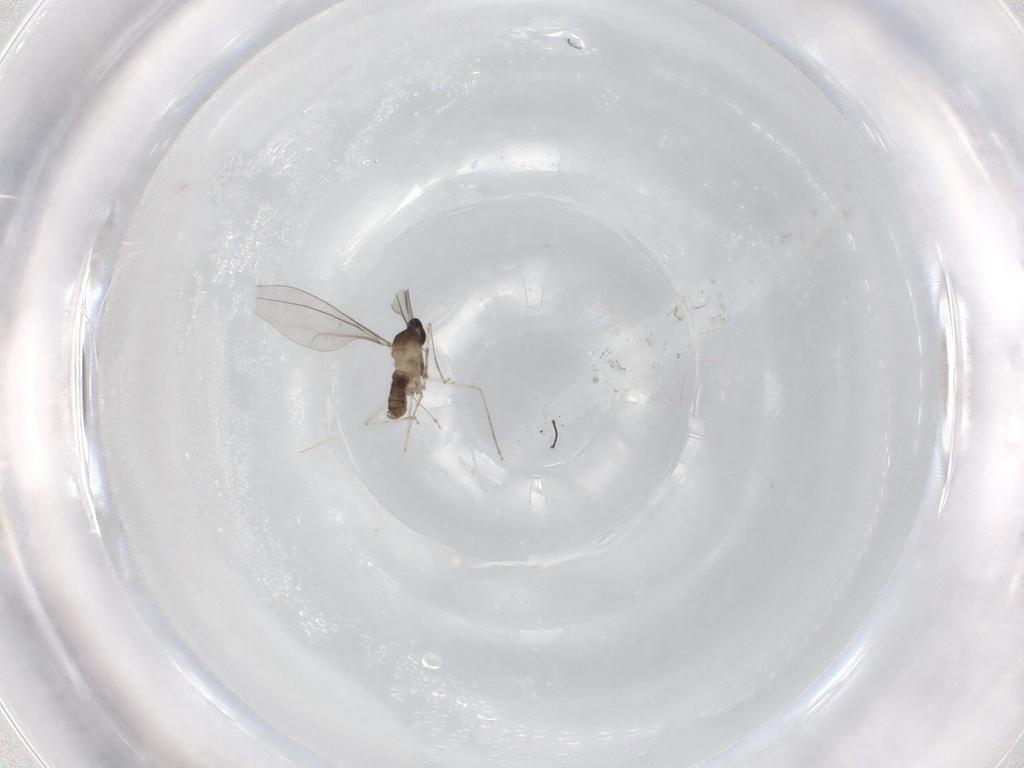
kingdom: Animalia
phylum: Arthropoda
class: Insecta
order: Diptera
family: Cecidomyiidae
